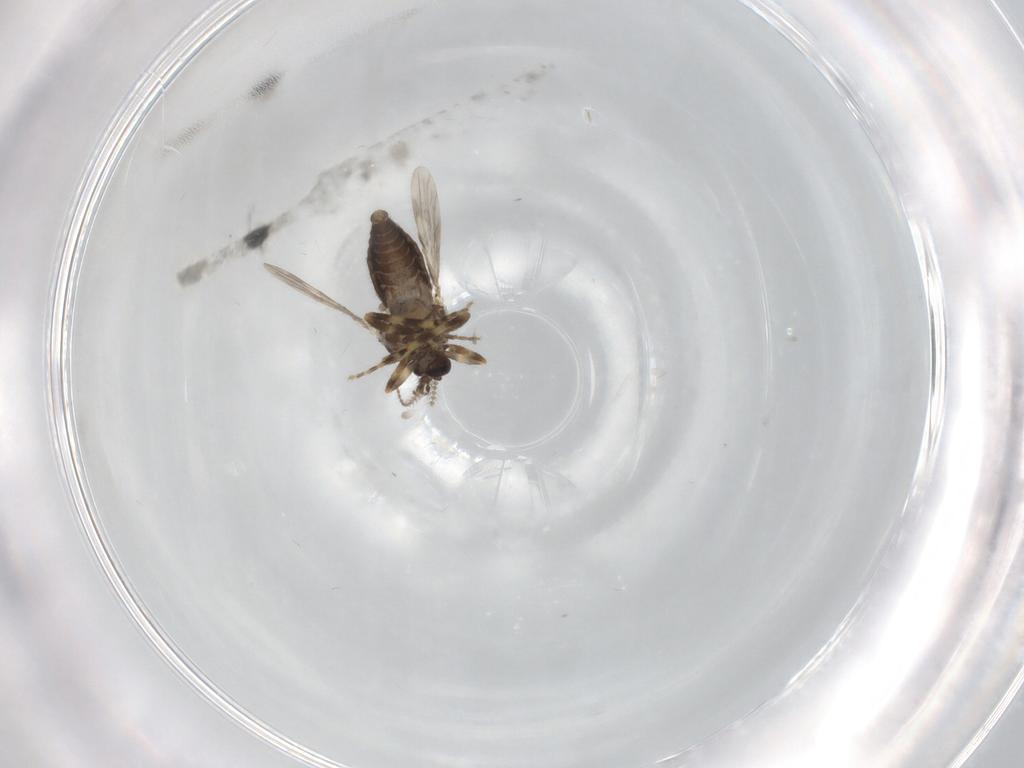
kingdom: Animalia
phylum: Arthropoda
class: Insecta
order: Diptera
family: Ceratopogonidae
